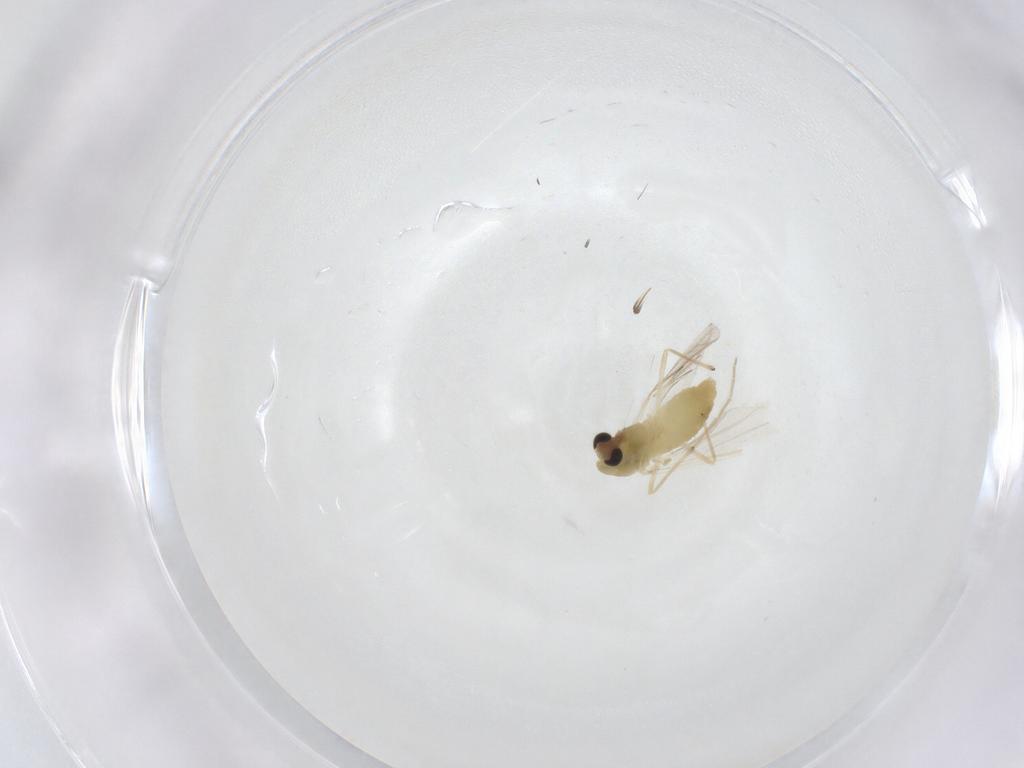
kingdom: Animalia
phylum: Arthropoda
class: Insecta
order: Diptera
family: Chironomidae
